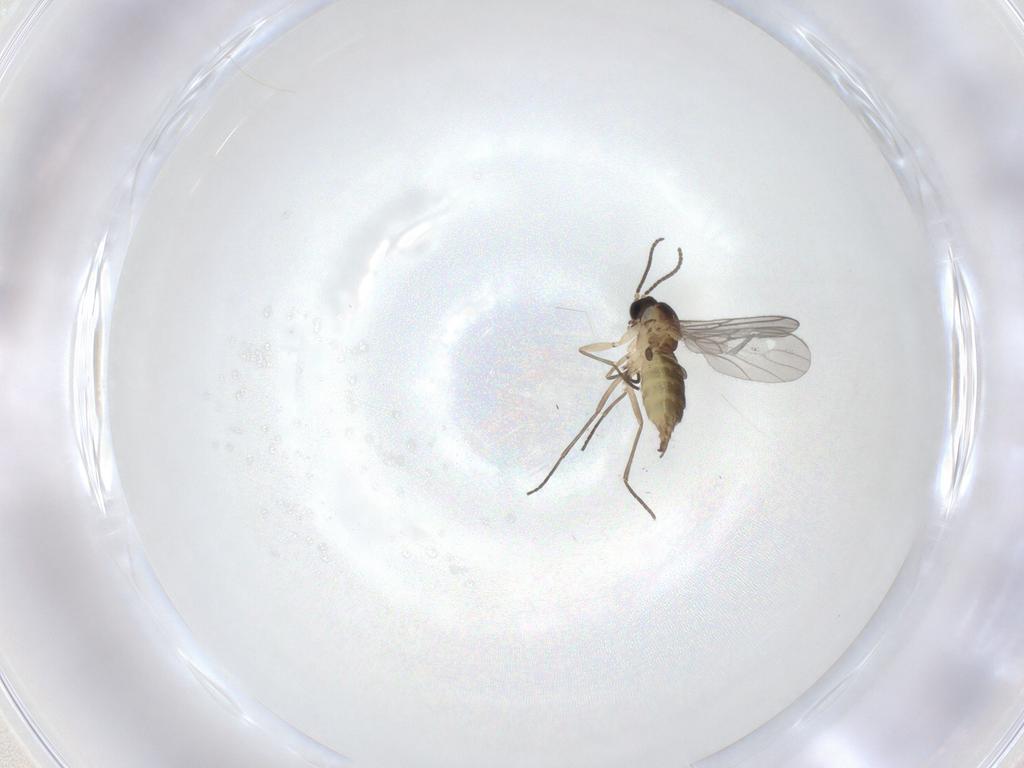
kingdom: Animalia
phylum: Arthropoda
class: Insecta
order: Diptera
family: Sciaridae
